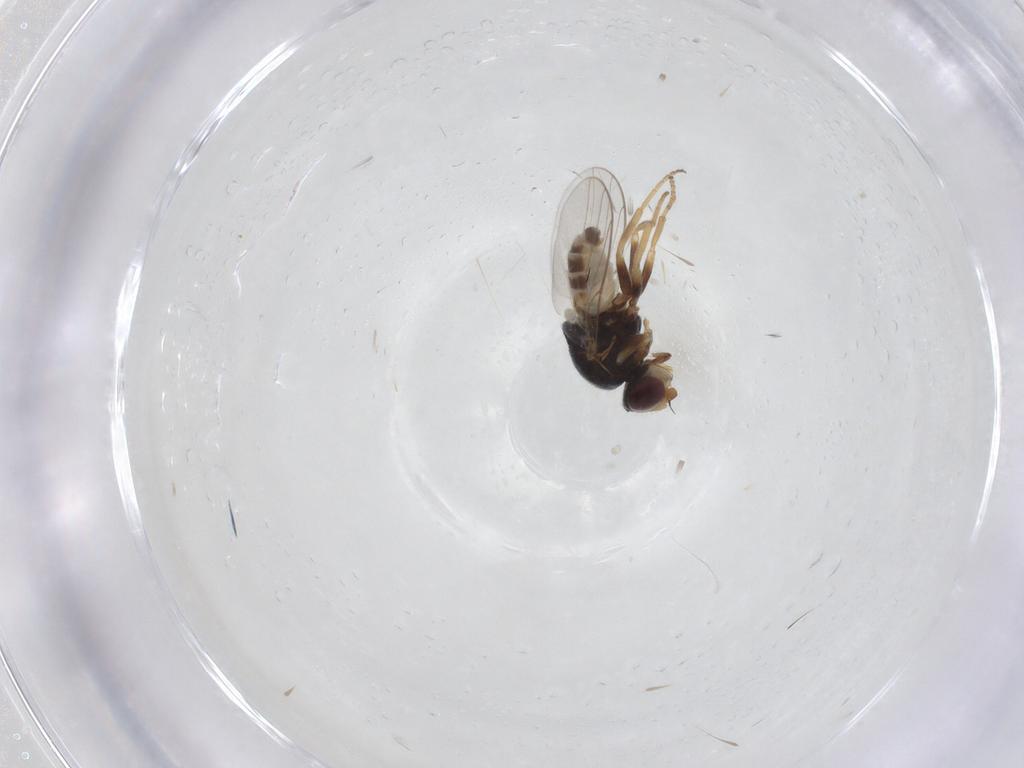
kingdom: Animalia
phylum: Arthropoda
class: Insecta
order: Diptera
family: Chloropidae
